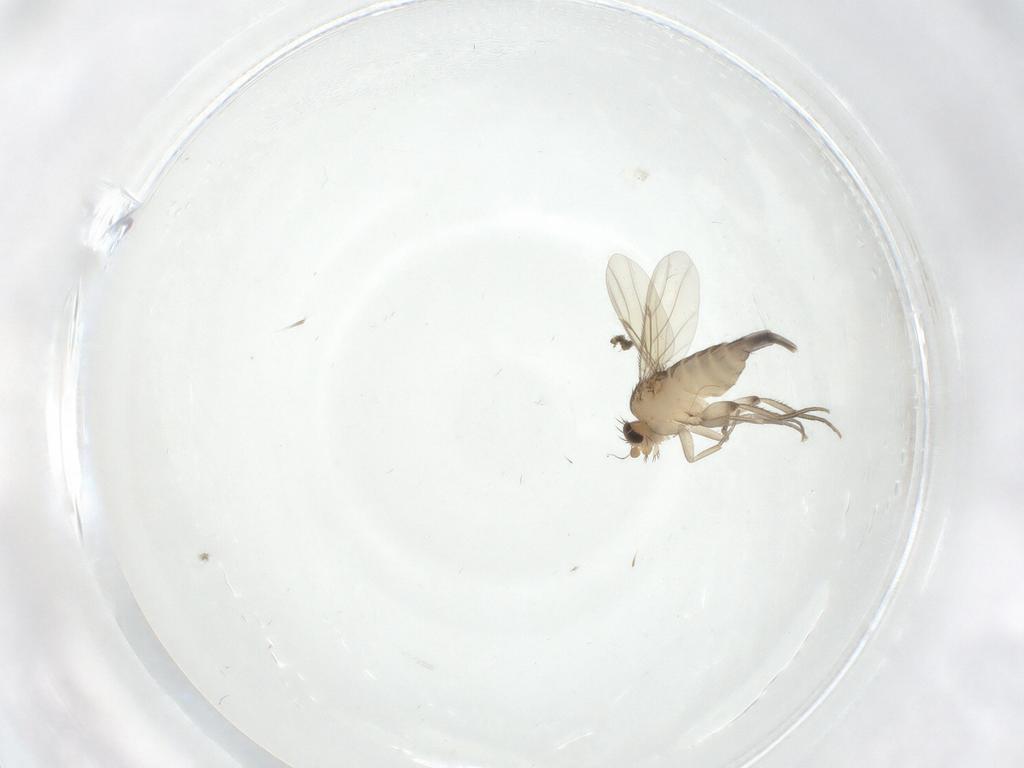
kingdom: Animalia
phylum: Arthropoda
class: Insecta
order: Diptera
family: Phoridae
